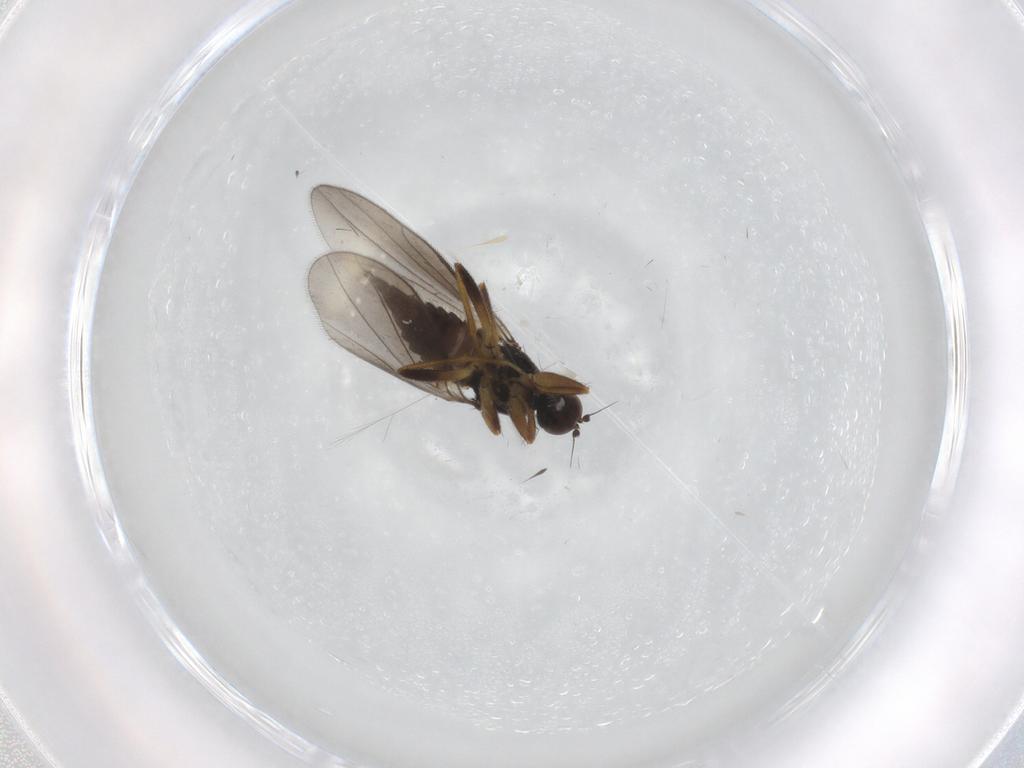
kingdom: Animalia
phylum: Arthropoda
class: Insecta
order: Diptera
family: Hybotidae
